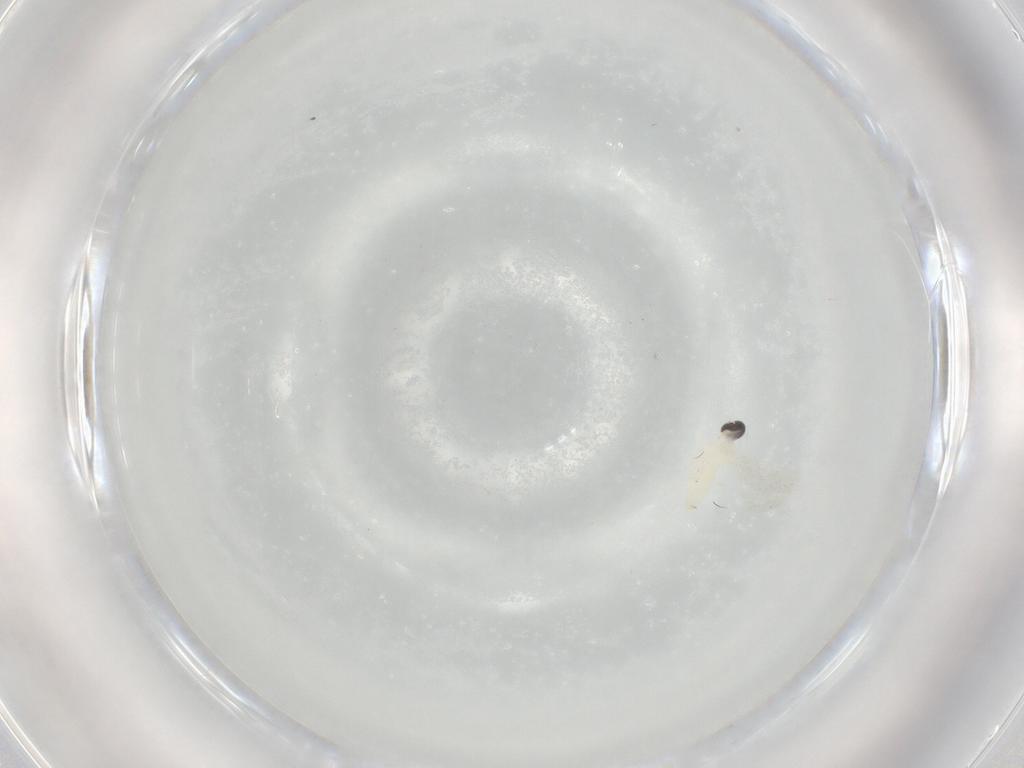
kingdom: Animalia
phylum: Arthropoda
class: Insecta
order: Diptera
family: Cecidomyiidae
